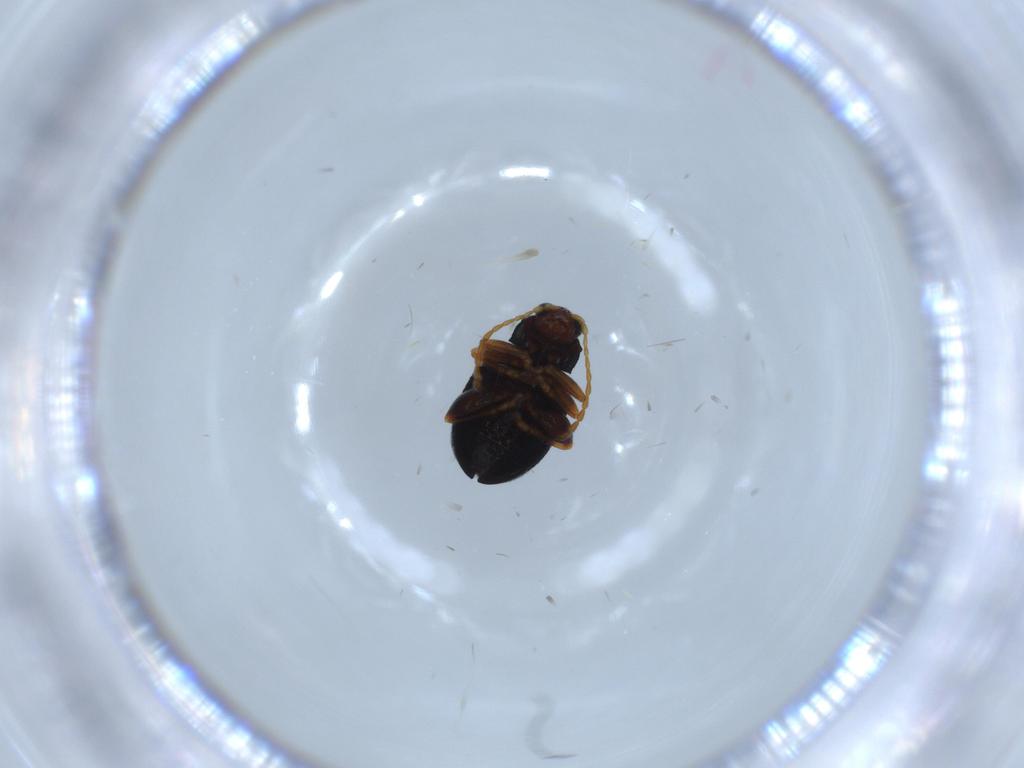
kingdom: Animalia
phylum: Arthropoda
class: Insecta
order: Coleoptera
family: Chrysomelidae
